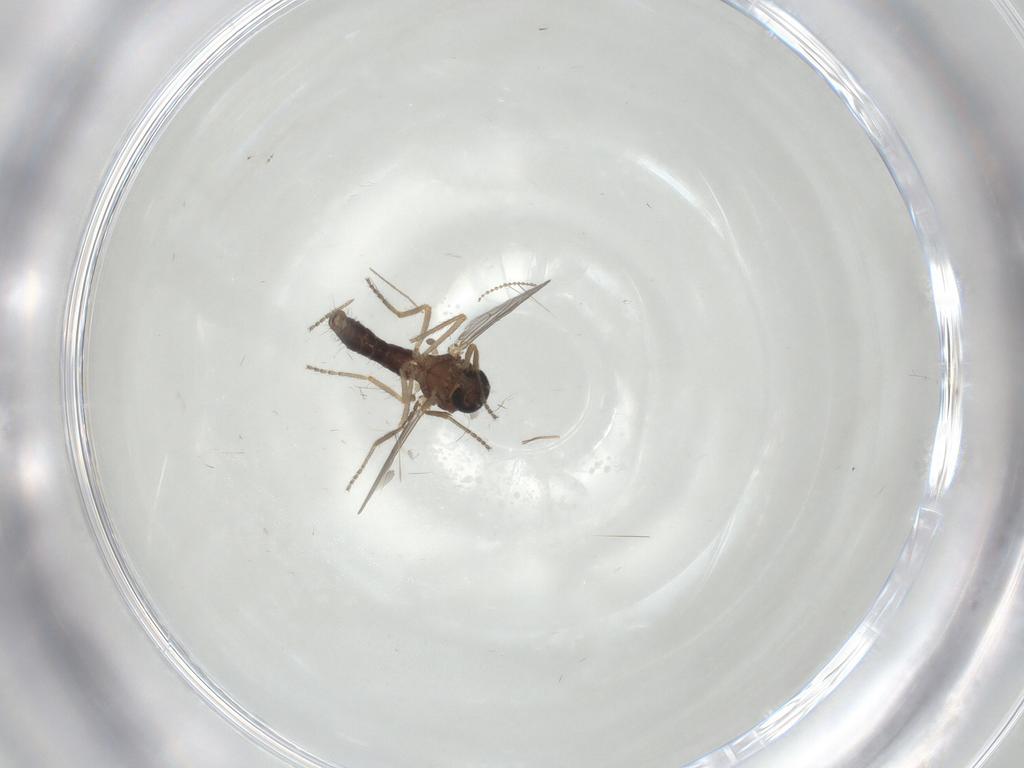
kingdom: Animalia
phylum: Arthropoda
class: Insecta
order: Diptera
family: Ceratopogonidae
